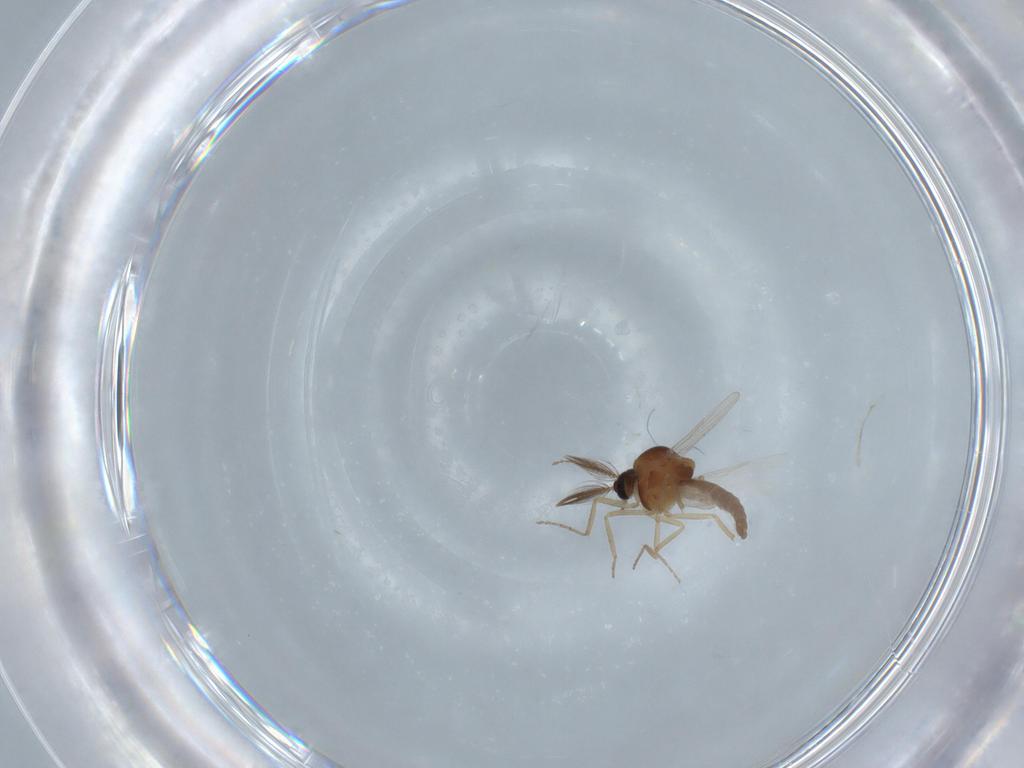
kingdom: Animalia
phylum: Arthropoda
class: Insecta
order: Diptera
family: Ceratopogonidae
